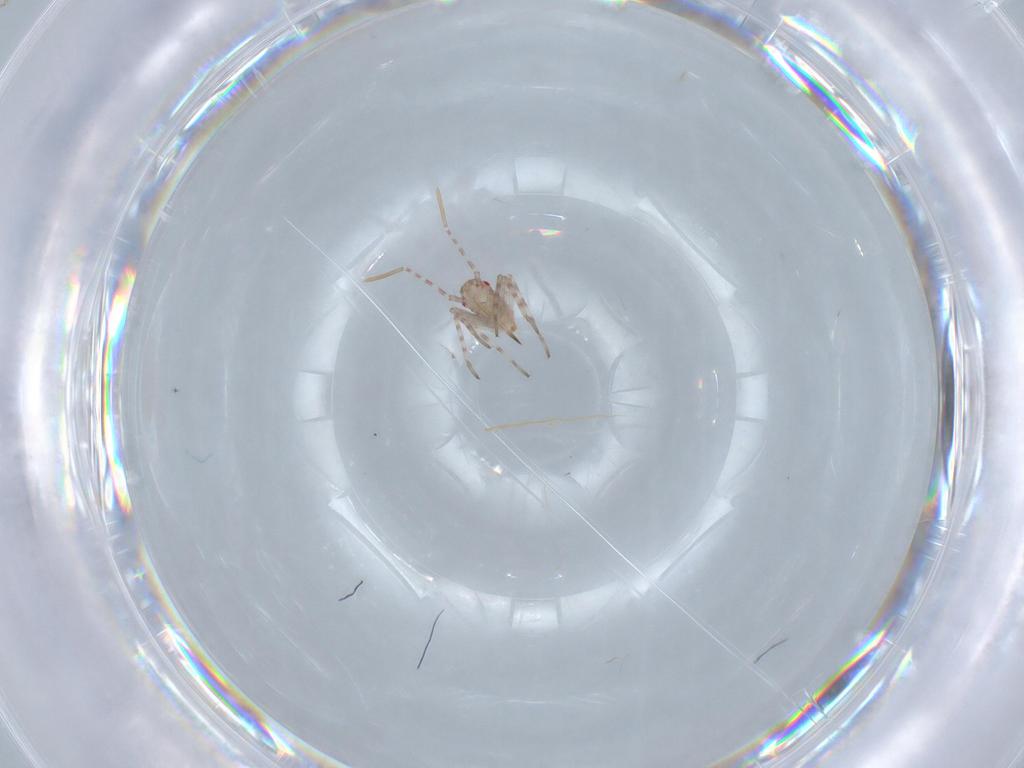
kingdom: Animalia
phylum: Arthropoda
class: Insecta
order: Hemiptera
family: Miridae
